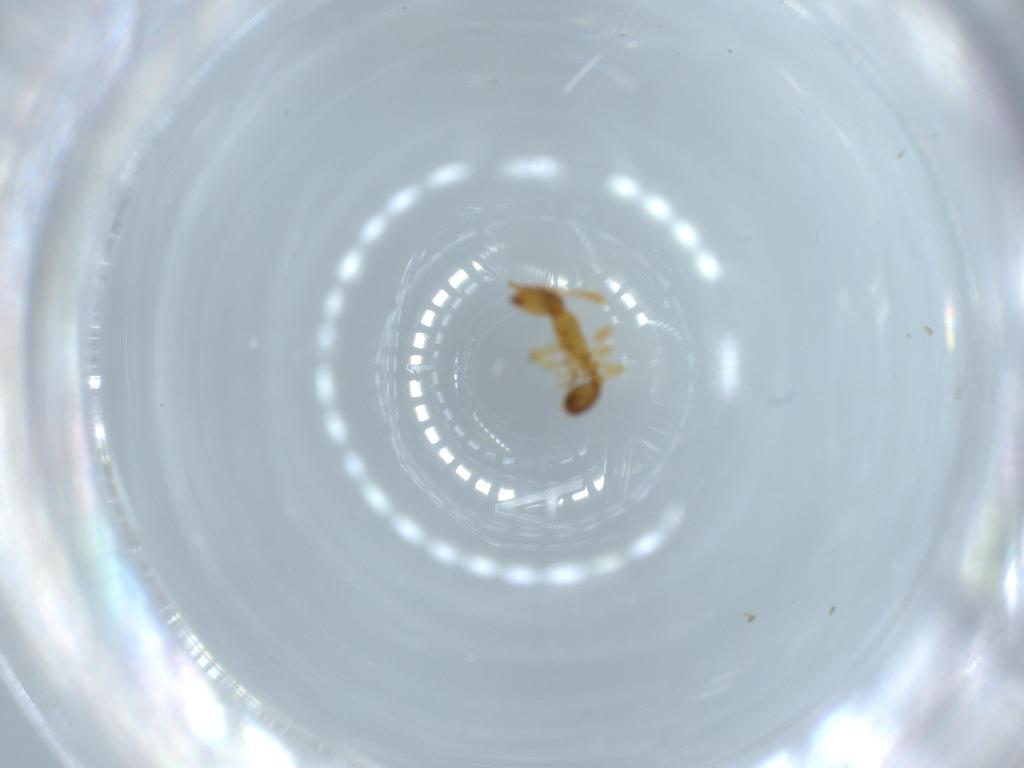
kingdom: Animalia
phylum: Arthropoda
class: Insecta
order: Hymenoptera
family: Formicidae
